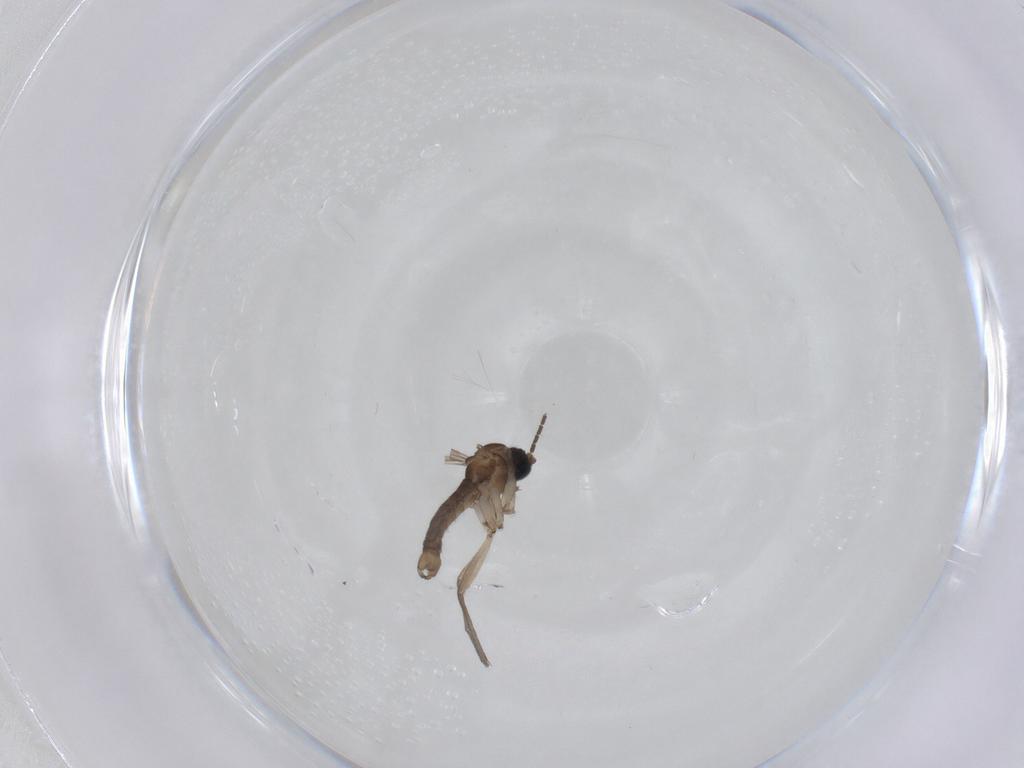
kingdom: Animalia
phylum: Arthropoda
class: Insecta
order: Diptera
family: Sciaridae
